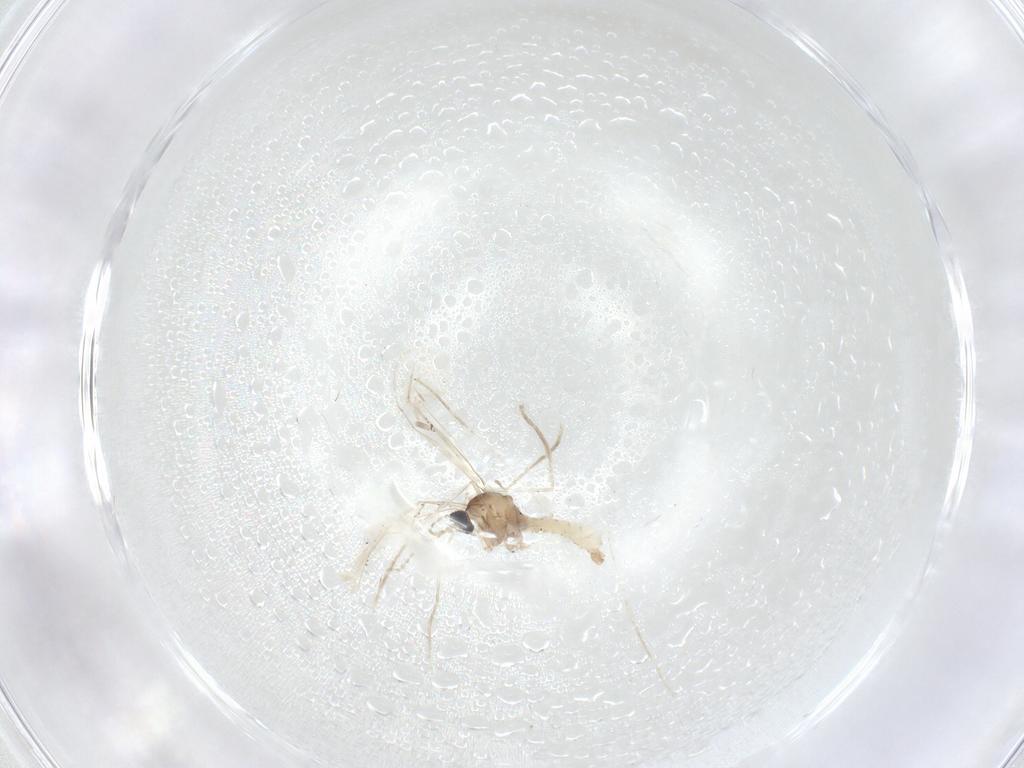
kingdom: Animalia
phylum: Arthropoda
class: Insecta
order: Diptera
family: Cecidomyiidae
